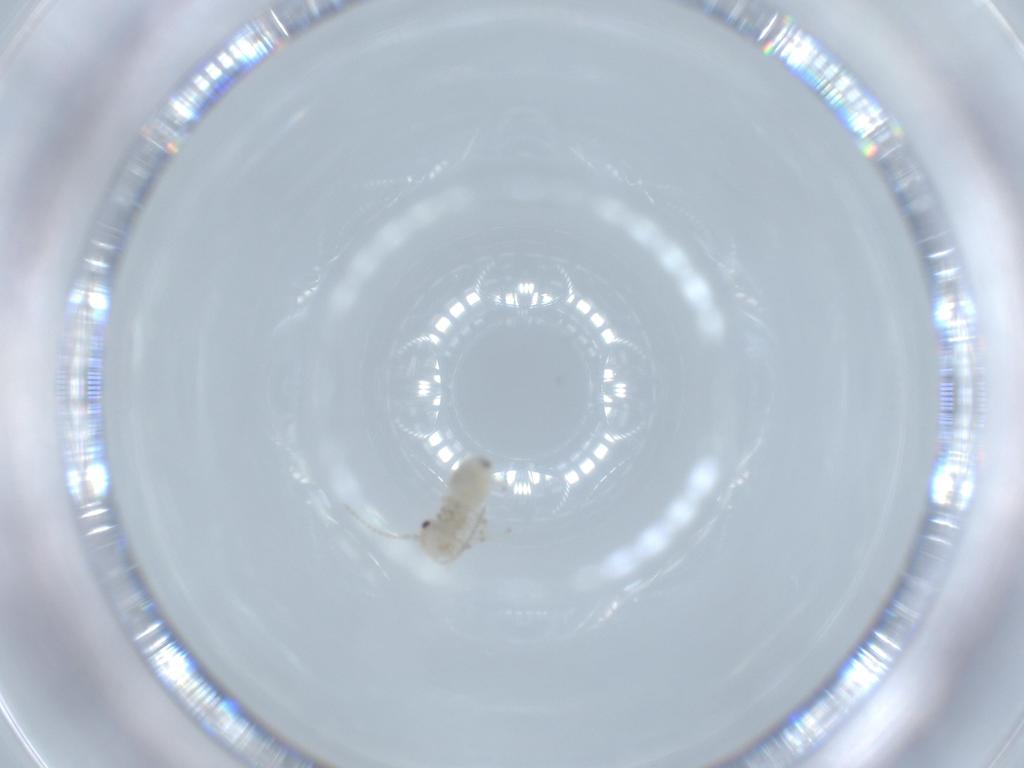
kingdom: Animalia
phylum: Arthropoda
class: Insecta
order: Psocodea
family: Amphipsocidae
